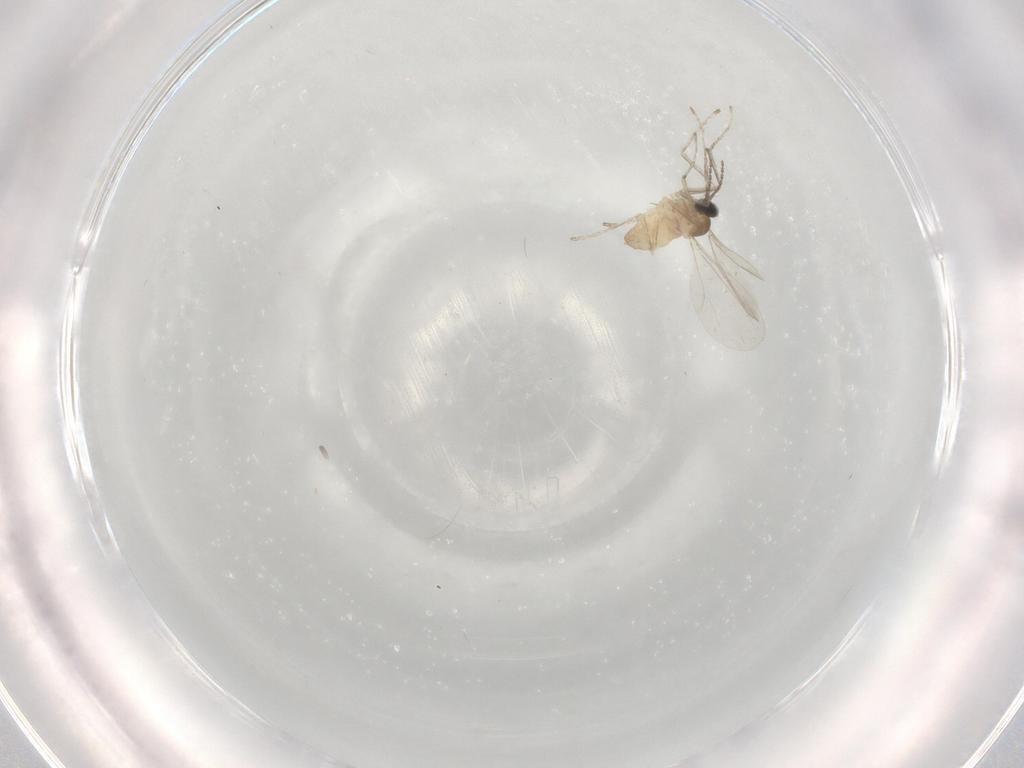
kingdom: Animalia
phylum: Arthropoda
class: Insecta
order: Diptera
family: Cecidomyiidae
